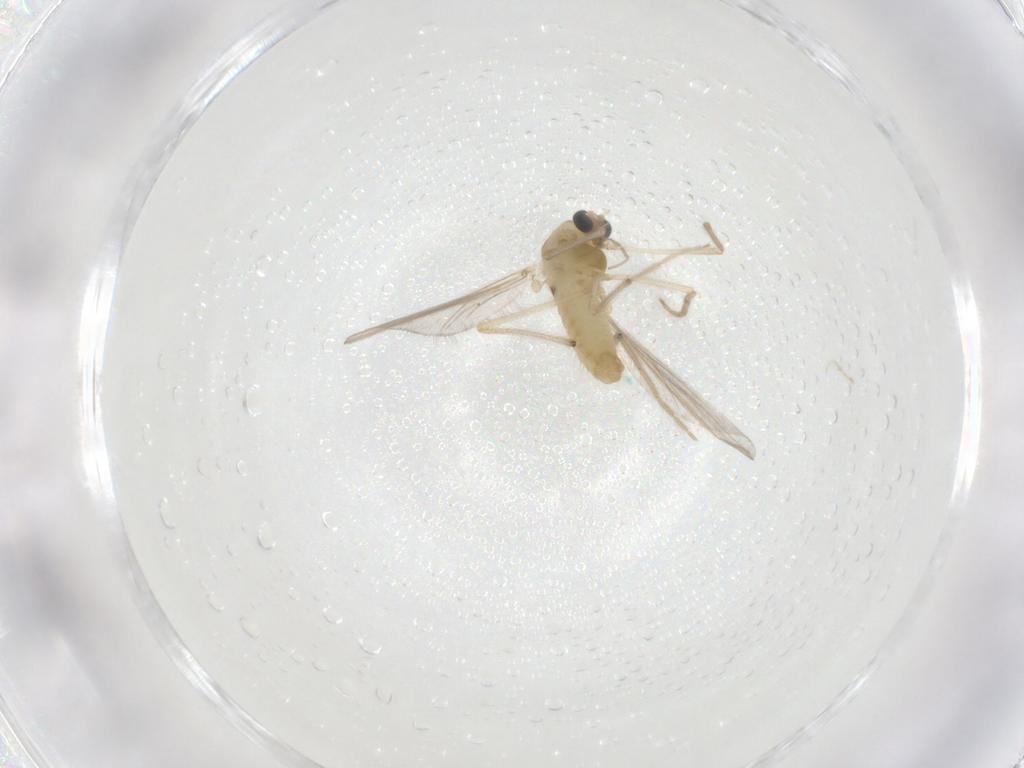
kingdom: Animalia
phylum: Arthropoda
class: Insecta
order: Diptera
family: Chironomidae
